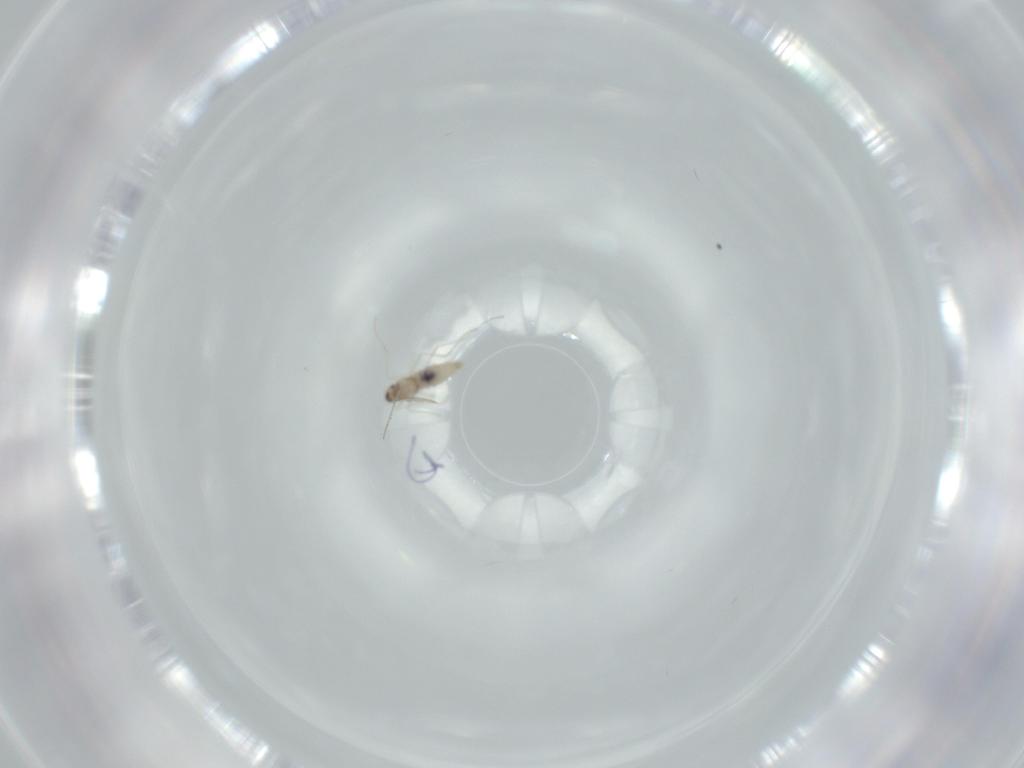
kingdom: Animalia
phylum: Arthropoda
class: Insecta
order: Diptera
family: Cecidomyiidae
